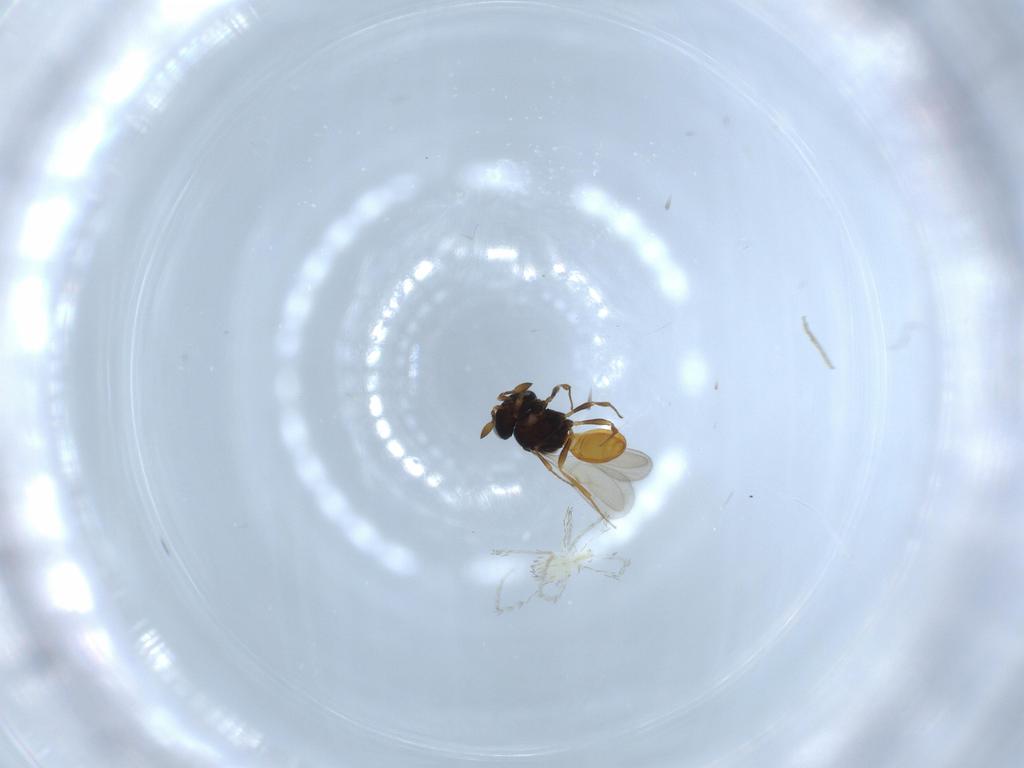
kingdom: Animalia
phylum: Arthropoda
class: Insecta
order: Hymenoptera
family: Scelionidae
